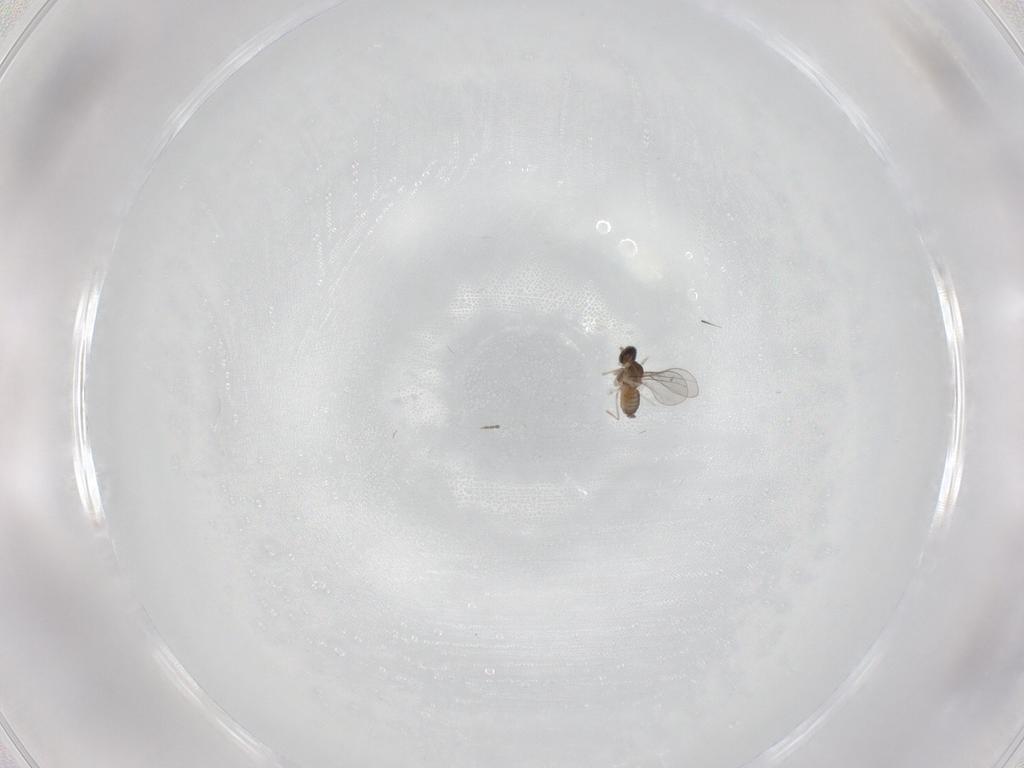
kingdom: Animalia
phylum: Arthropoda
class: Insecta
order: Diptera
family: Cecidomyiidae
